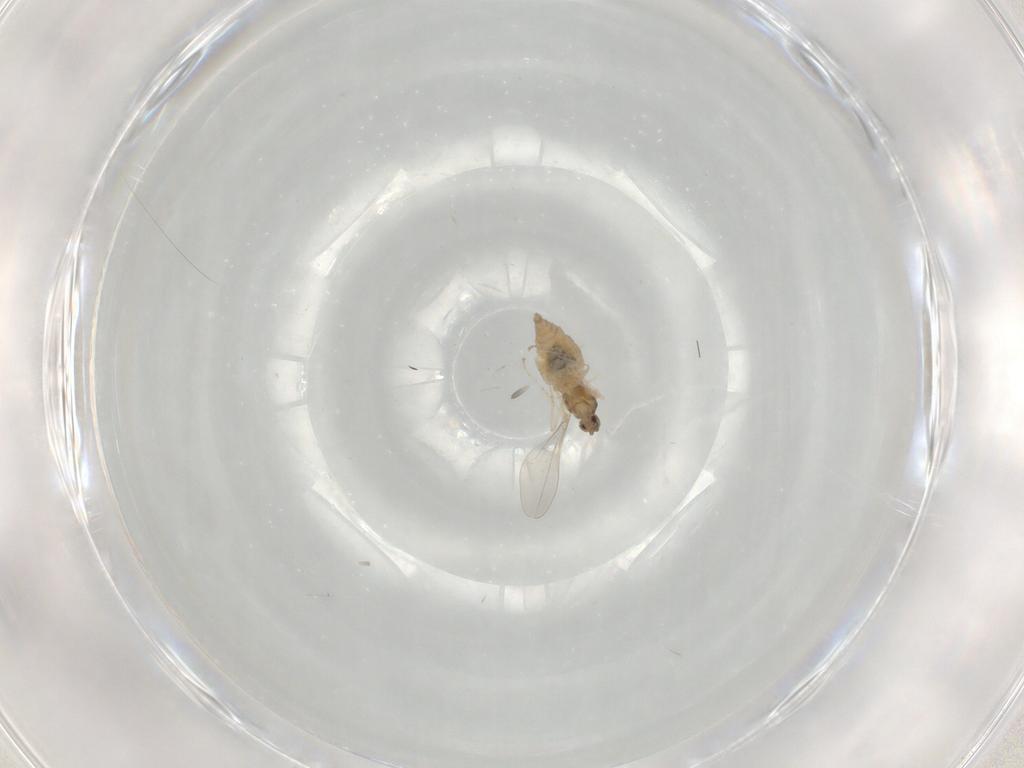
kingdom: Animalia
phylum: Arthropoda
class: Insecta
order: Diptera
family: Cecidomyiidae
